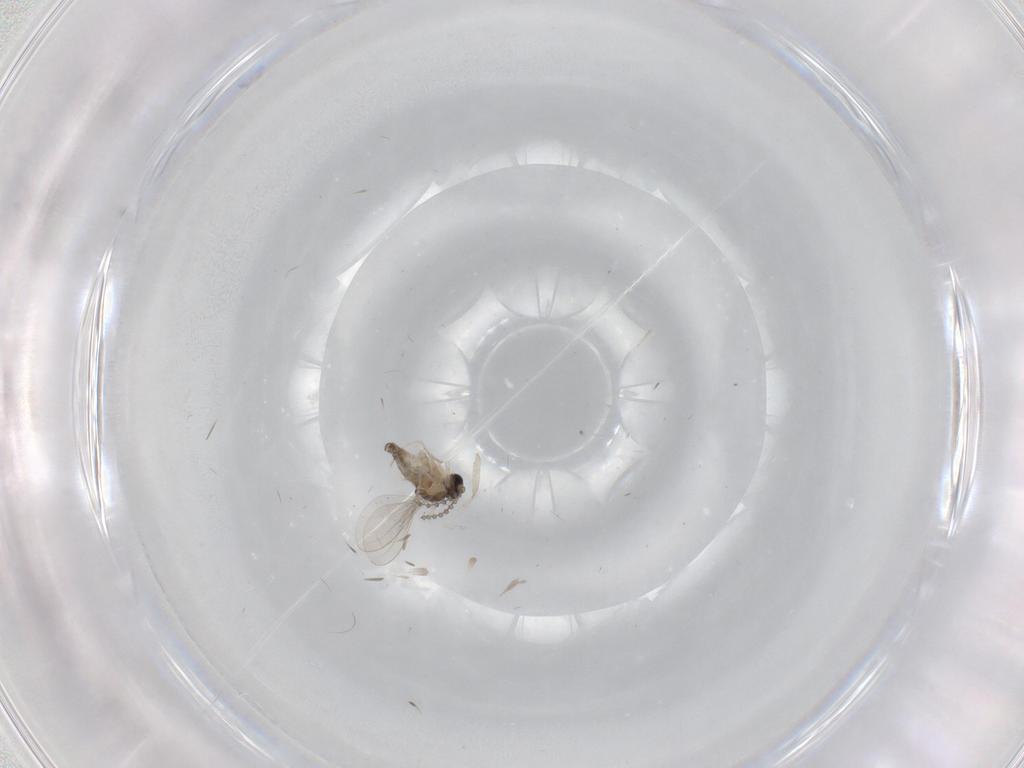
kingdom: Animalia
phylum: Arthropoda
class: Insecta
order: Diptera
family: Cecidomyiidae
